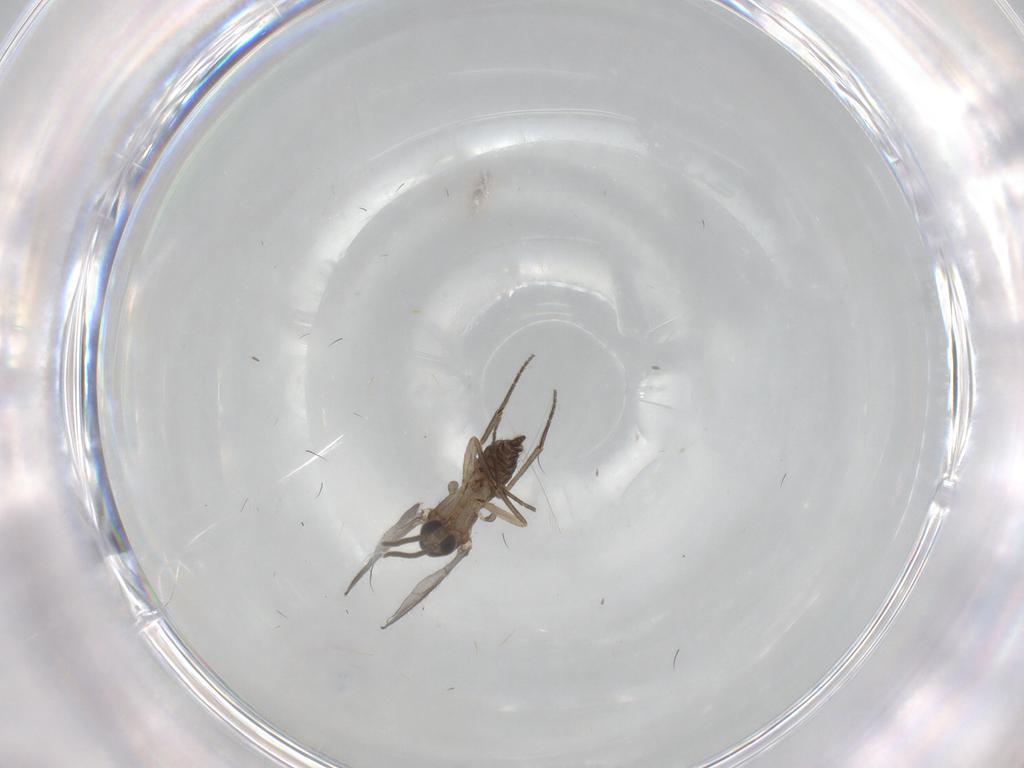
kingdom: Animalia
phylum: Arthropoda
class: Insecta
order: Diptera
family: Sciaridae
